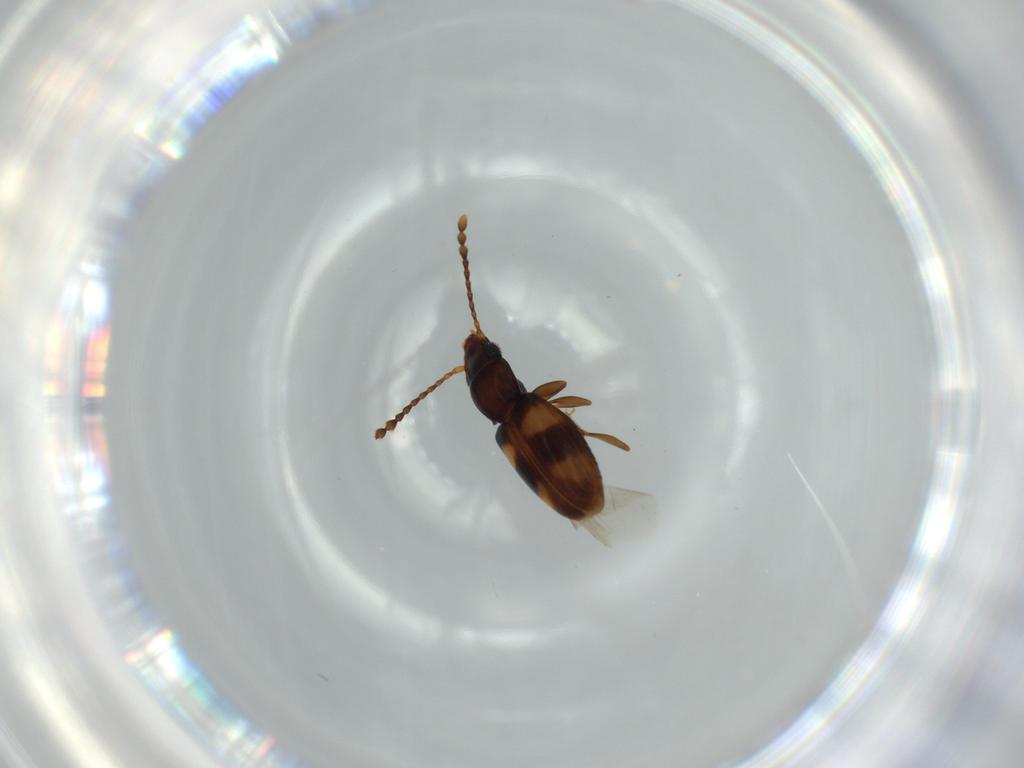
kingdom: Animalia
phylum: Arthropoda
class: Insecta
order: Coleoptera
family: Laemophloeidae
